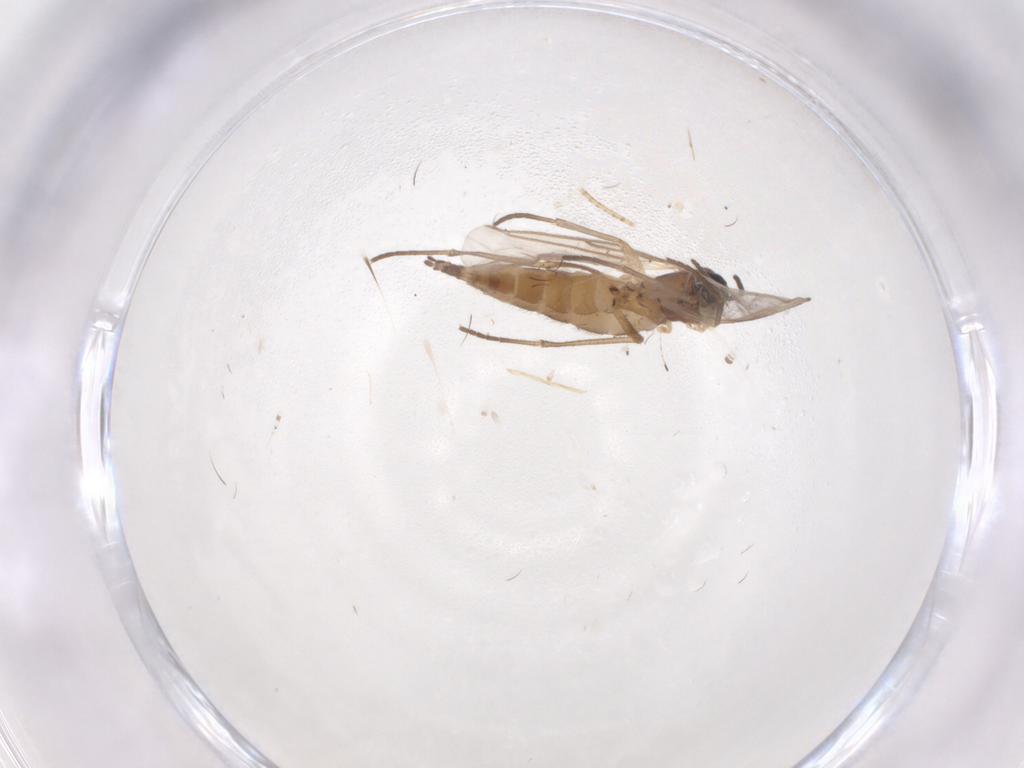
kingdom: Animalia
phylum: Arthropoda
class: Insecta
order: Diptera
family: Sciaridae
